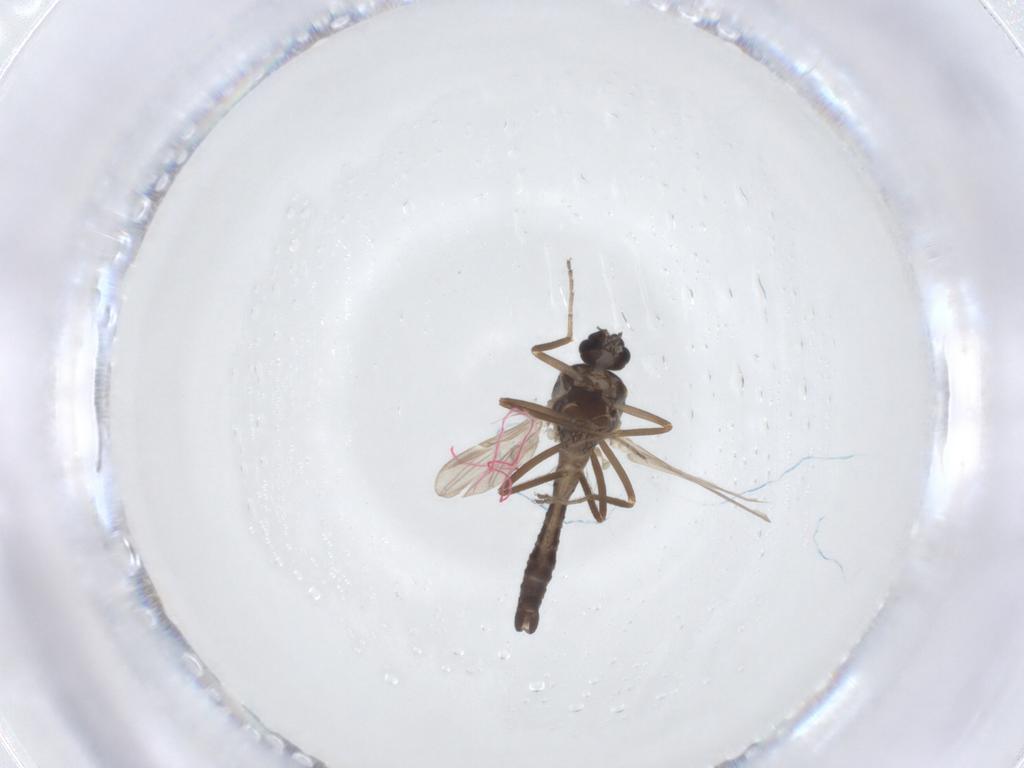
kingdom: Animalia
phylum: Arthropoda
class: Insecta
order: Diptera
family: Ceratopogonidae
